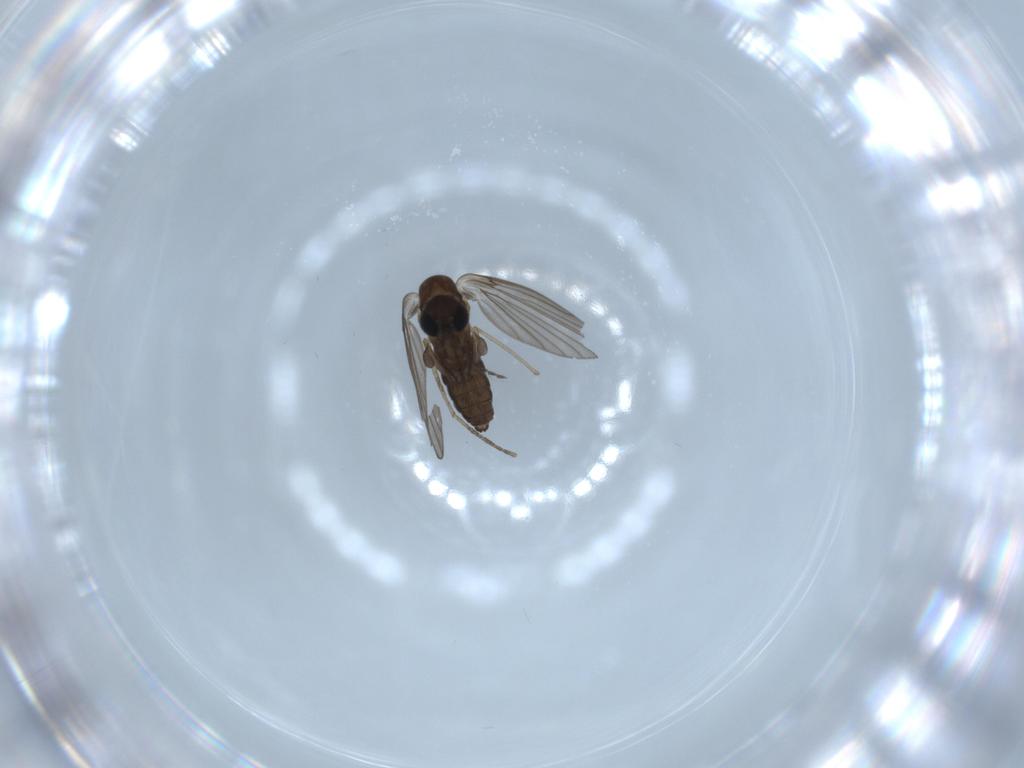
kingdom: Animalia
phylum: Arthropoda
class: Insecta
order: Diptera
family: Psychodidae
